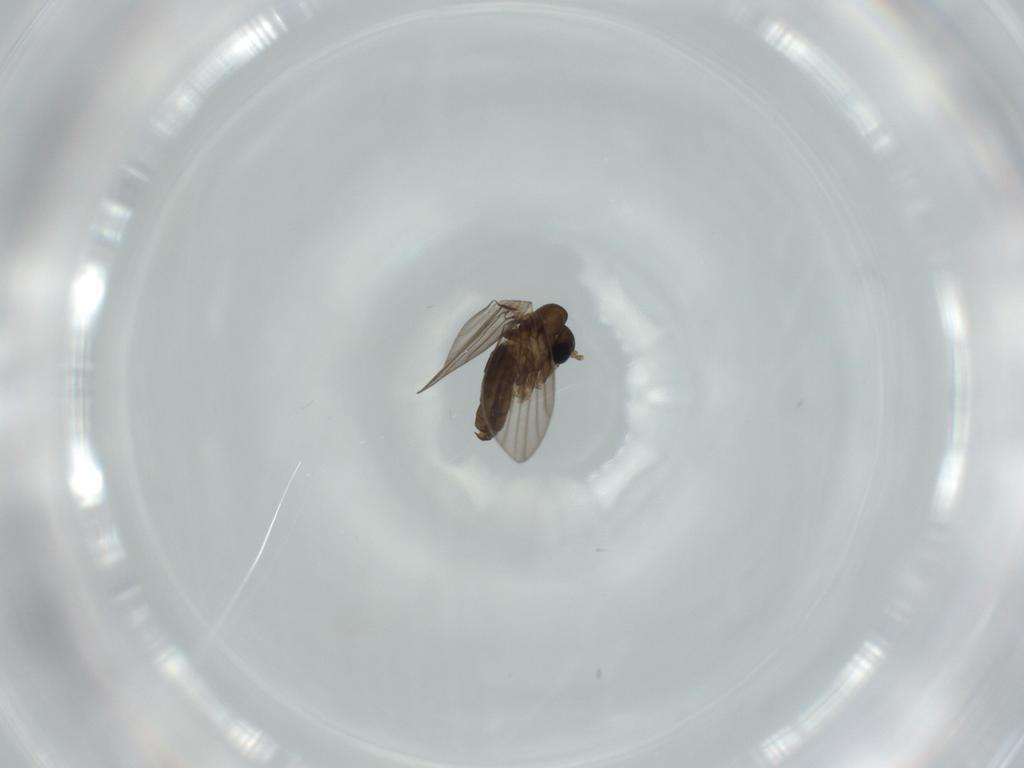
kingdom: Animalia
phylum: Arthropoda
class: Insecta
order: Diptera
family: Psychodidae
